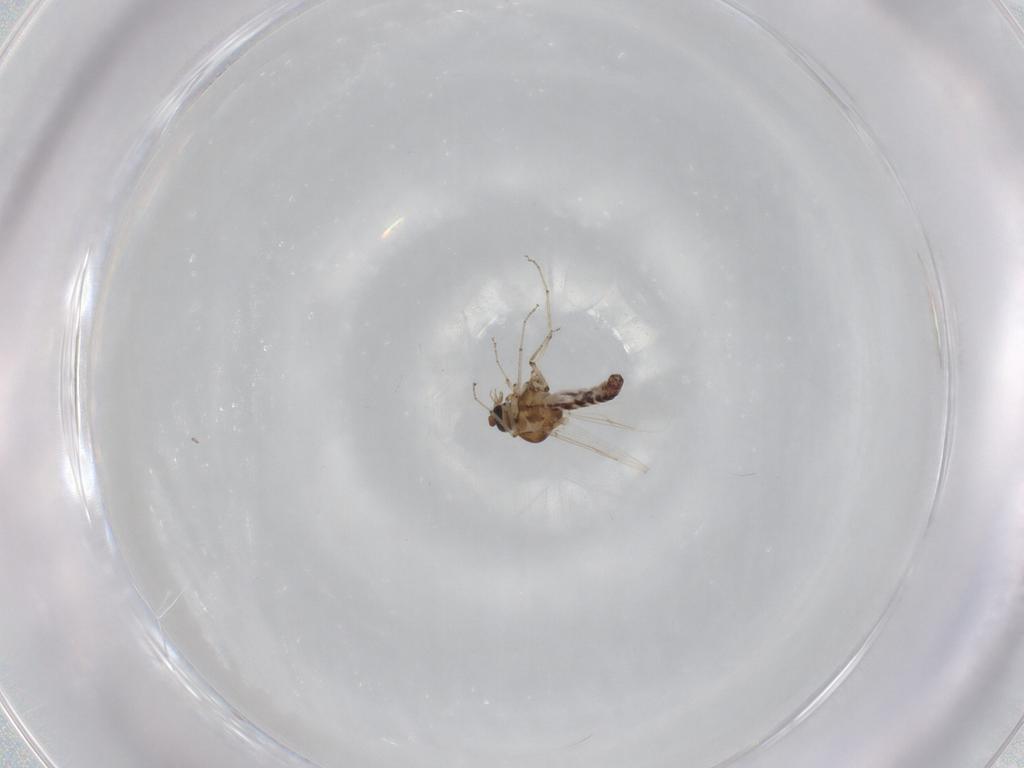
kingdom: Animalia
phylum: Arthropoda
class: Insecta
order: Diptera
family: Ceratopogonidae
